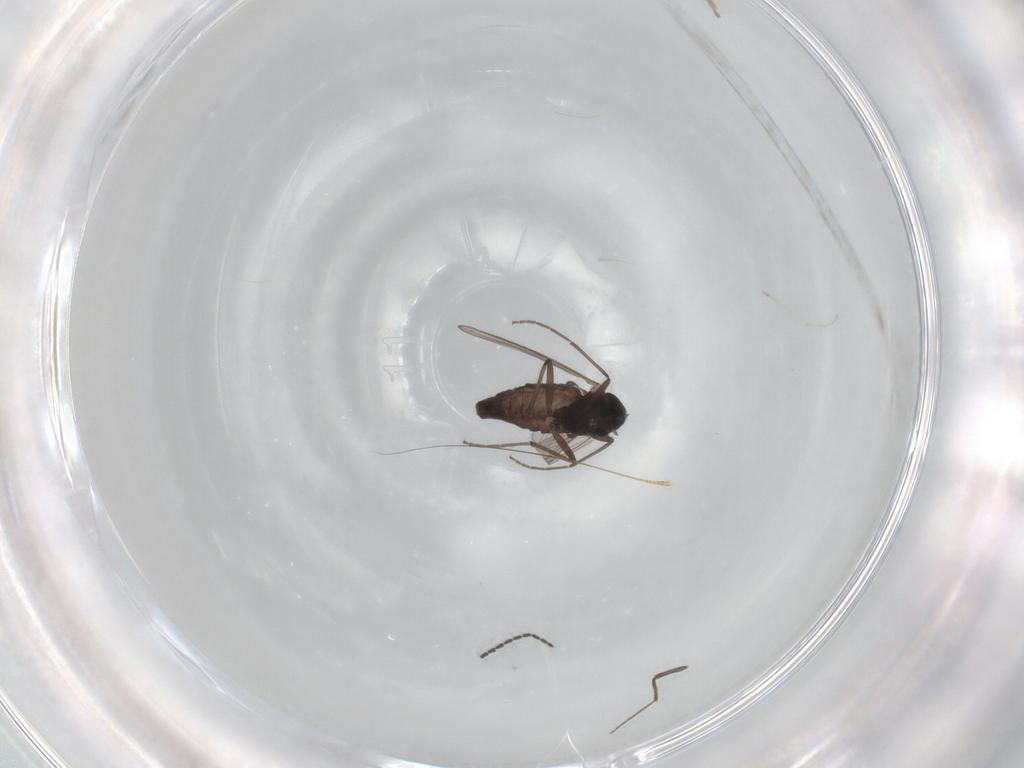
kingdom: Animalia
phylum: Arthropoda
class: Insecta
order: Diptera
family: Chironomidae
